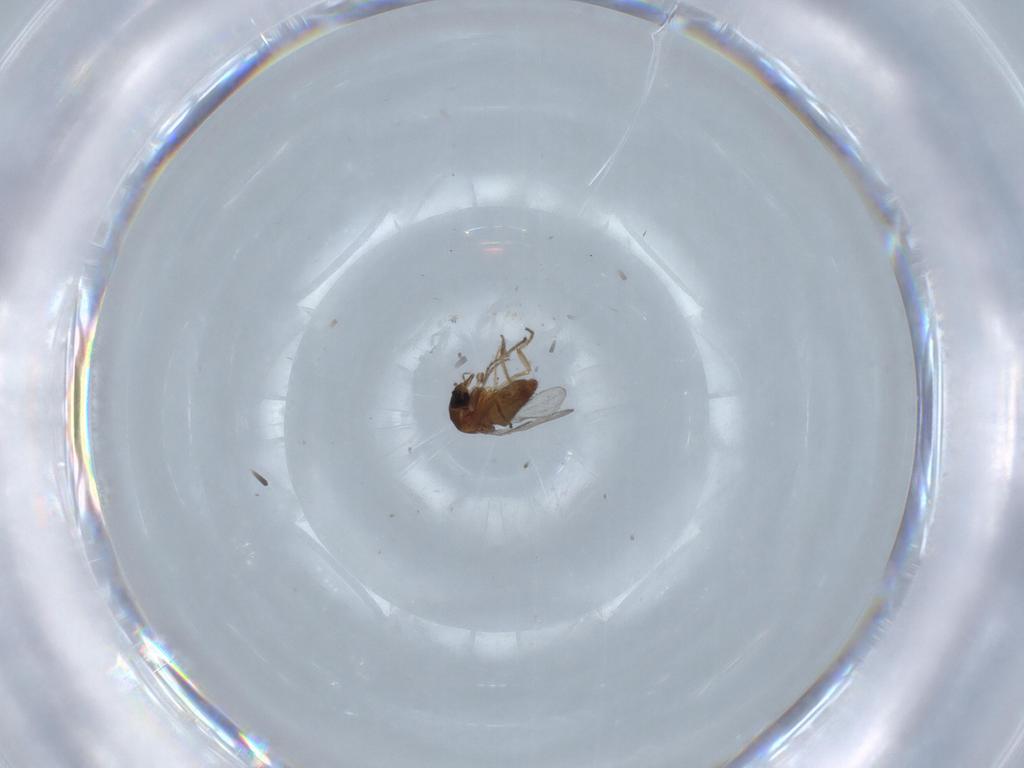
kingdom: Animalia
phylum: Arthropoda
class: Insecta
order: Diptera
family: Ceratopogonidae
